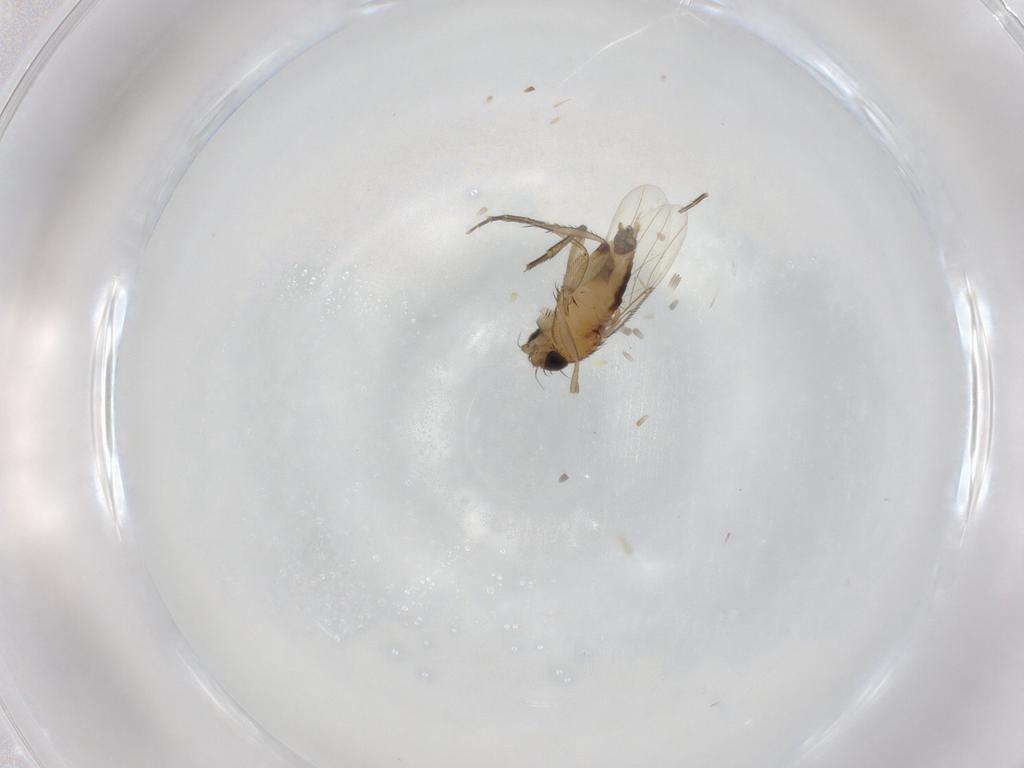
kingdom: Animalia
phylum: Arthropoda
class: Insecta
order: Diptera
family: Phoridae
